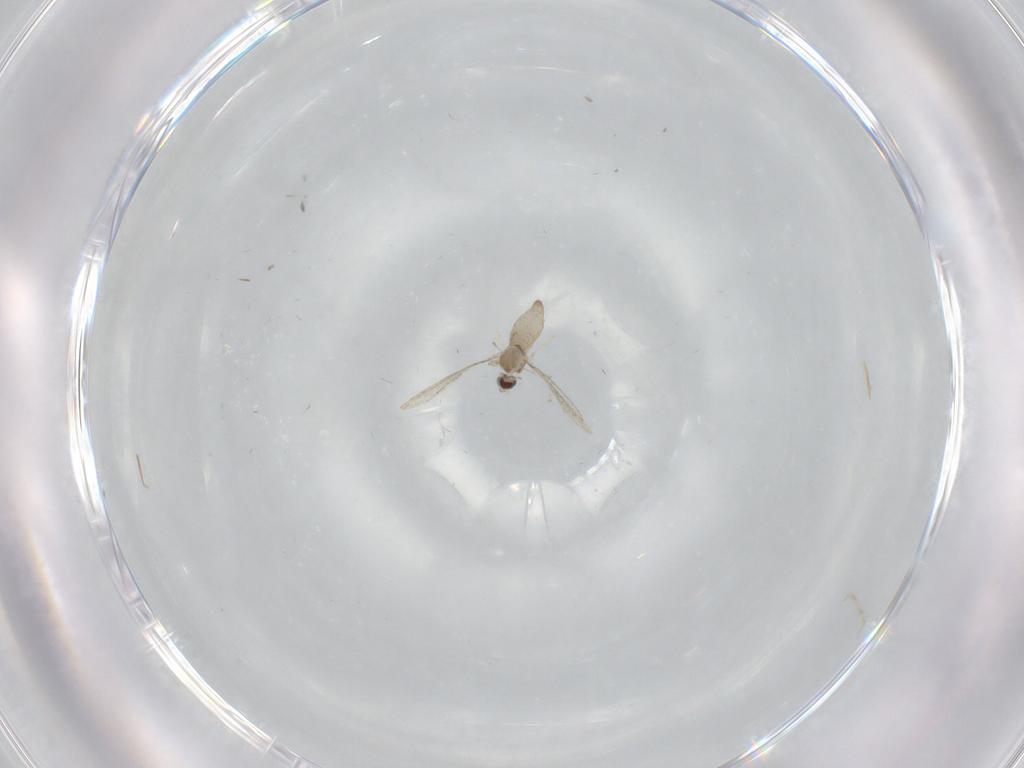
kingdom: Animalia
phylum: Arthropoda
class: Insecta
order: Diptera
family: Cecidomyiidae
